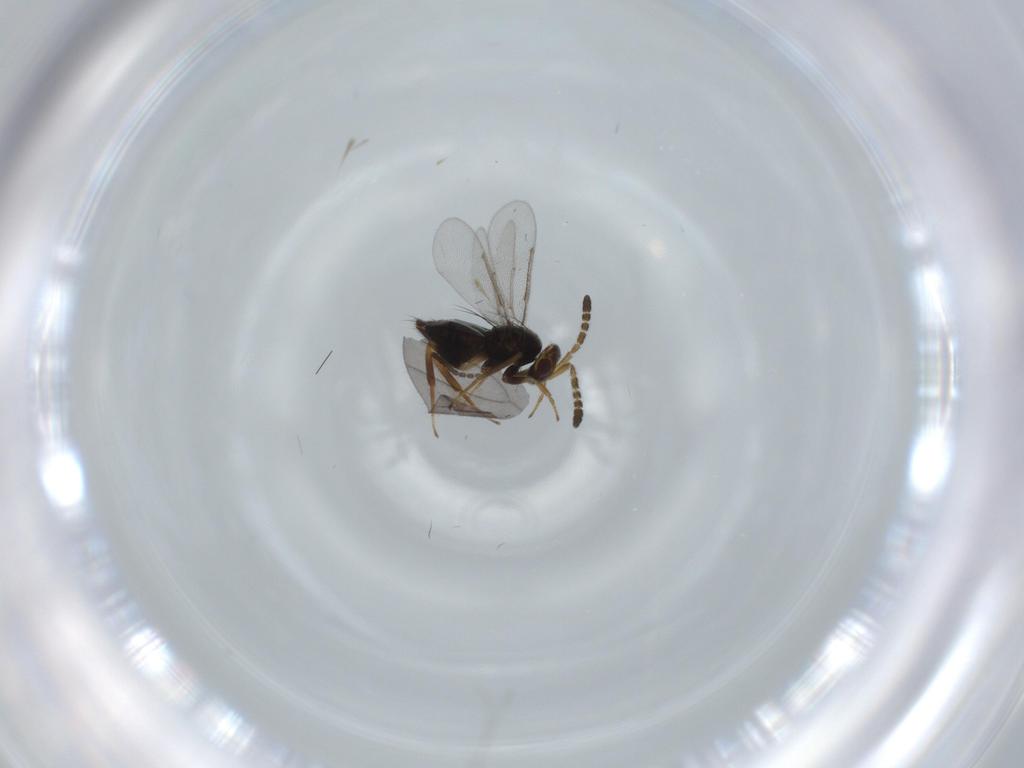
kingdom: Animalia
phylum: Arthropoda
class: Insecta
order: Hymenoptera
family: Aphelinidae
